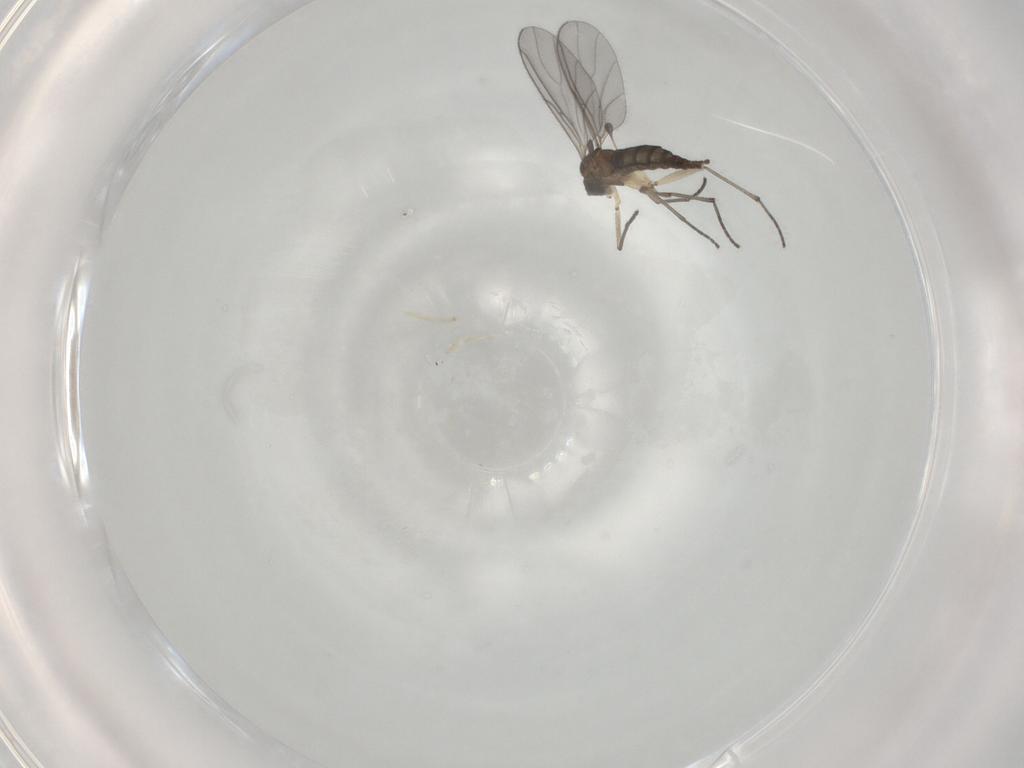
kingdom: Animalia
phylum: Arthropoda
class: Insecta
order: Diptera
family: Sciaridae
